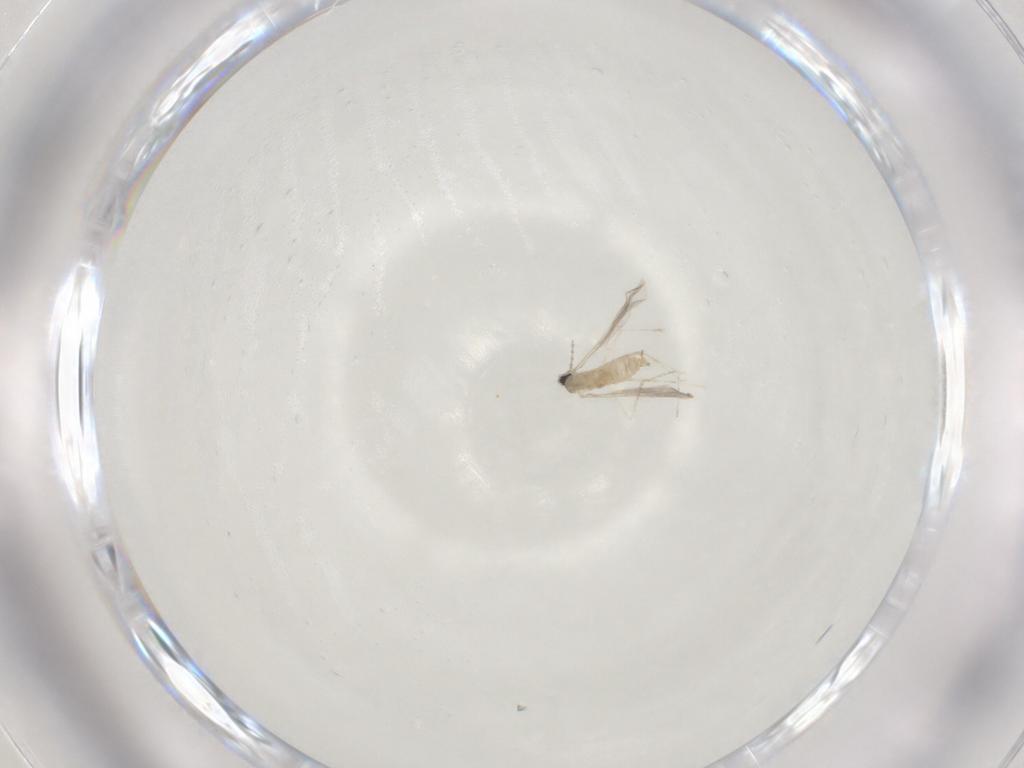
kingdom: Animalia
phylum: Arthropoda
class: Insecta
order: Diptera
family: Cecidomyiidae
